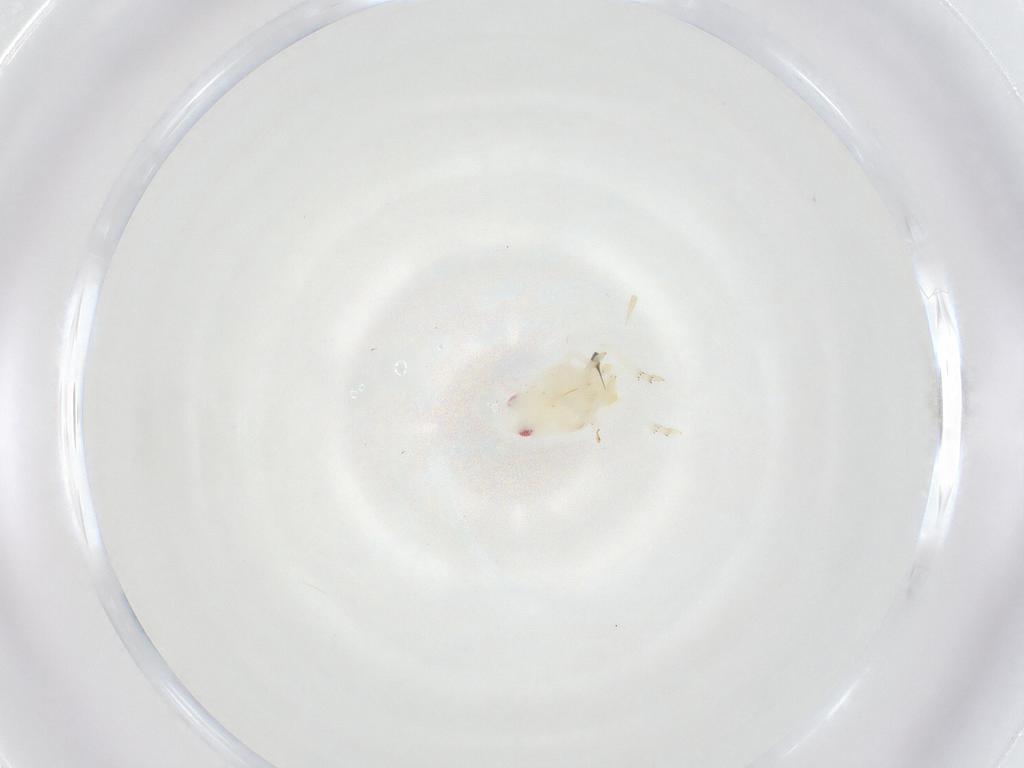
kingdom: Animalia
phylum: Arthropoda
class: Insecta
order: Hemiptera
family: Flatidae
